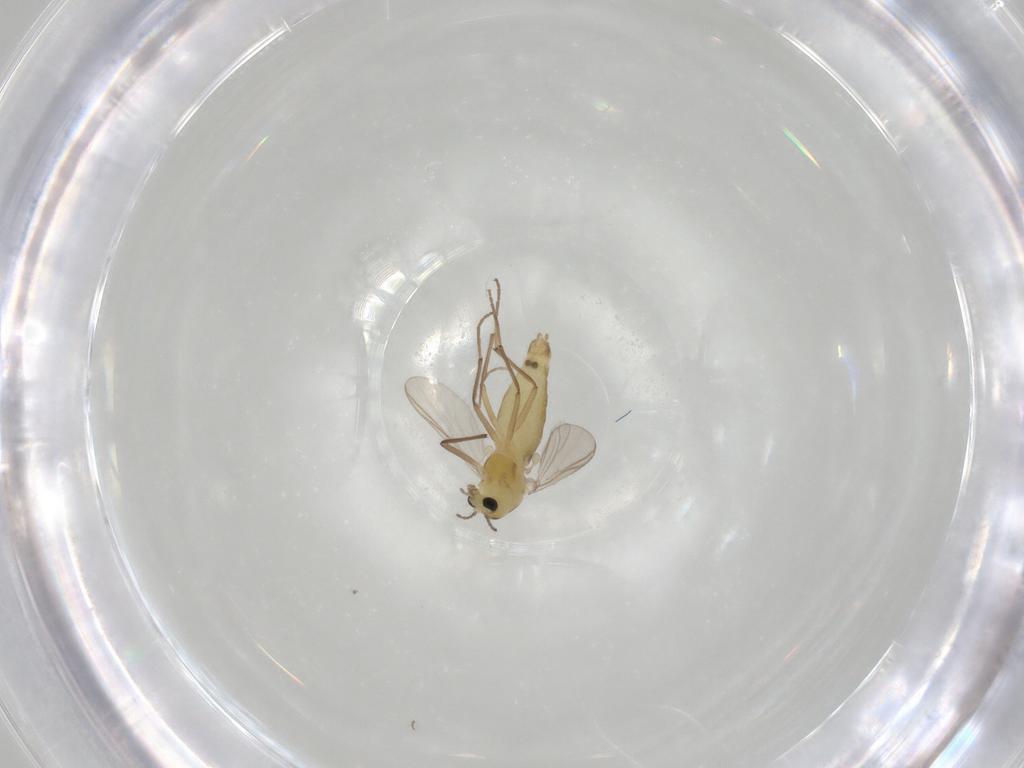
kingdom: Animalia
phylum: Arthropoda
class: Insecta
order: Diptera
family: Chironomidae
